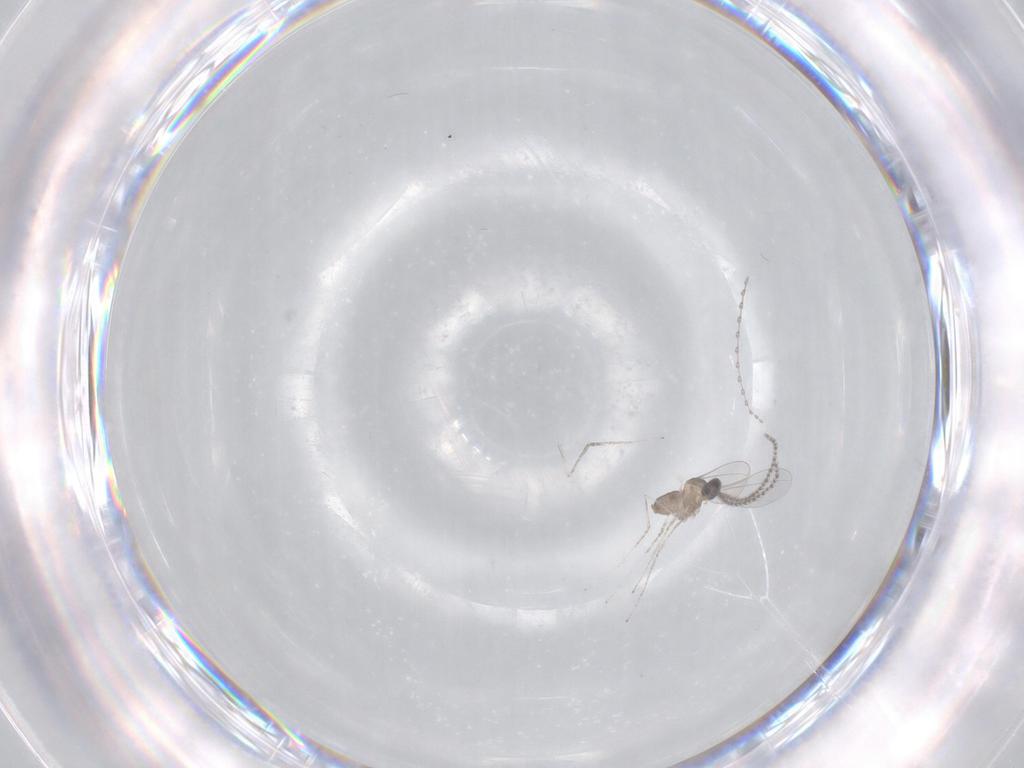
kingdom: Animalia
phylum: Arthropoda
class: Insecta
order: Diptera
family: Cecidomyiidae
